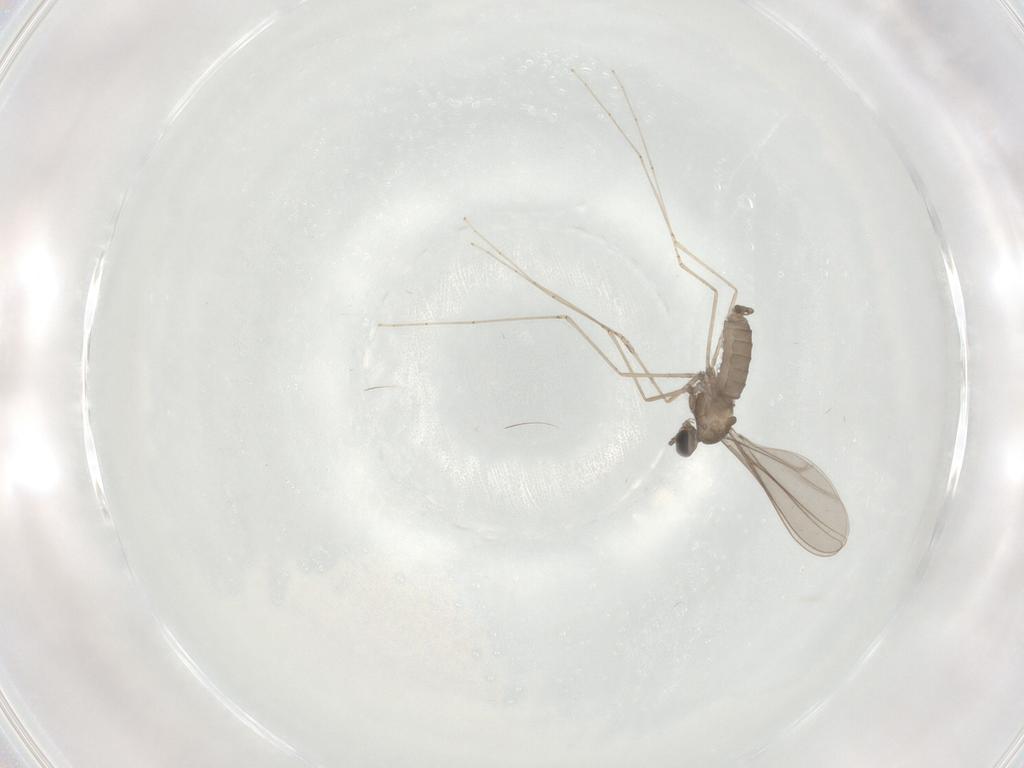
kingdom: Animalia
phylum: Arthropoda
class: Insecta
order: Diptera
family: Cecidomyiidae
